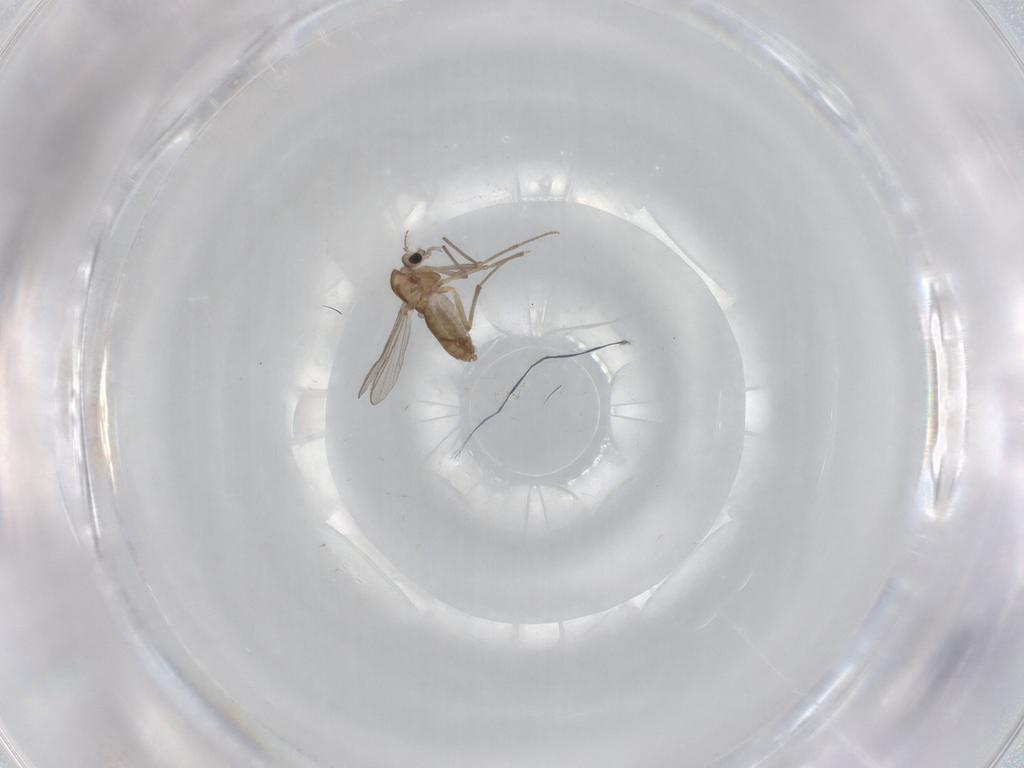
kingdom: Animalia
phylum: Arthropoda
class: Insecta
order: Diptera
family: Chironomidae
